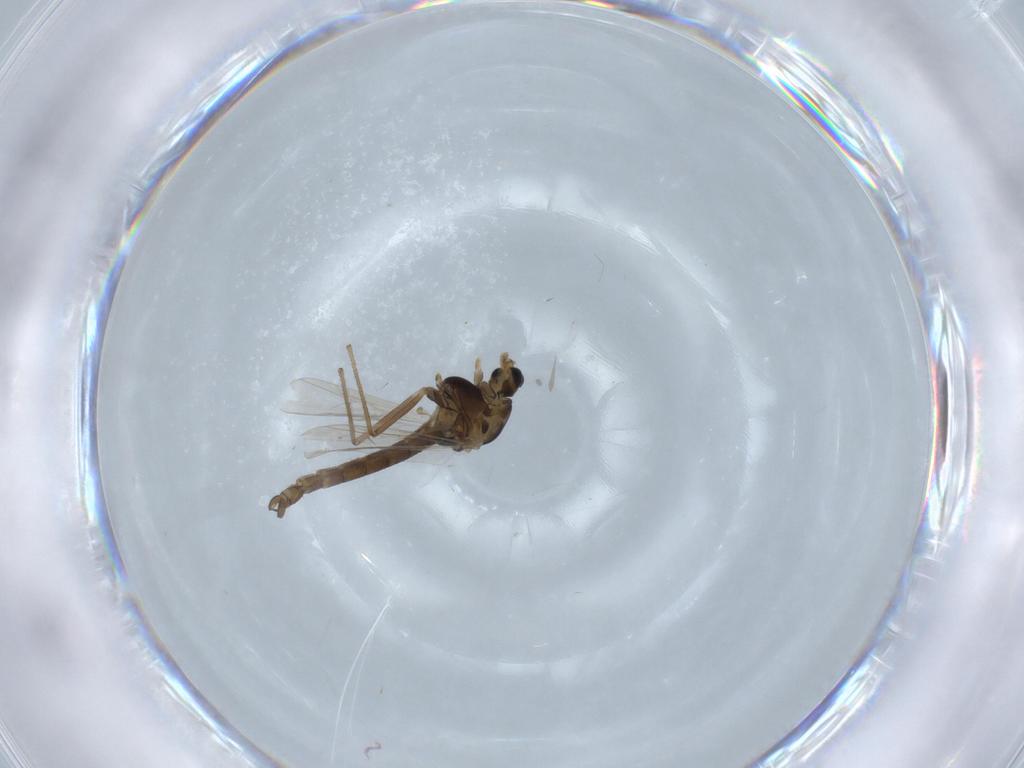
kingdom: Animalia
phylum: Arthropoda
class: Insecta
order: Diptera
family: Chironomidae
